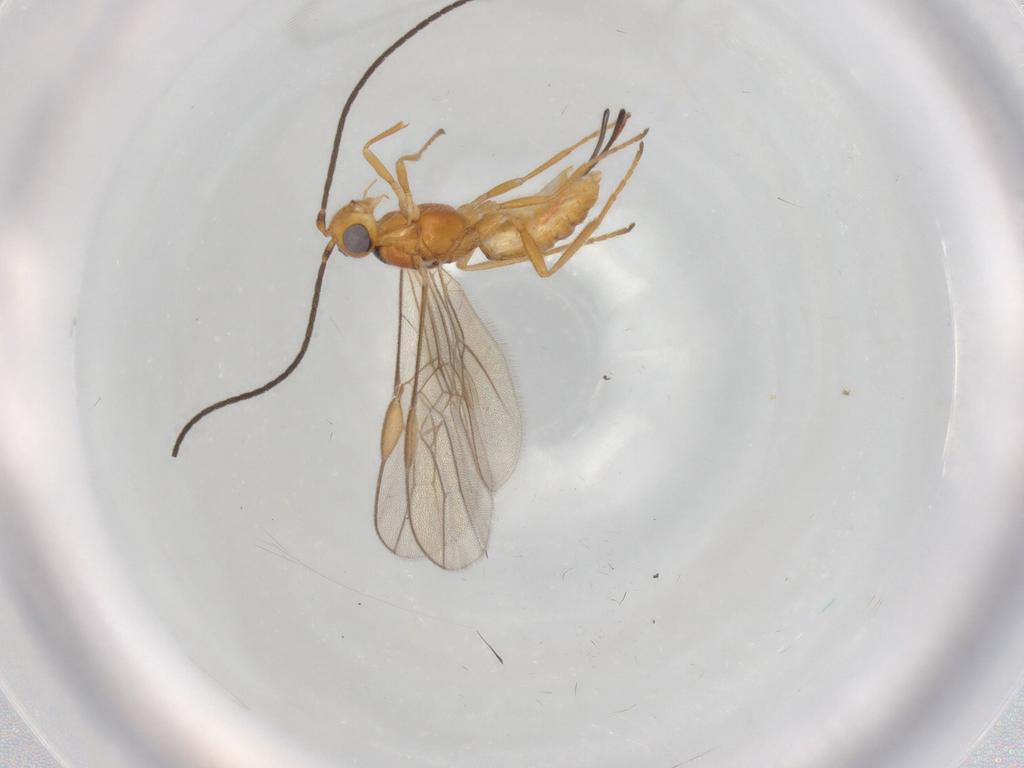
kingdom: Animalia
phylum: Arthropoda
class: Insecta
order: Hymenoptera
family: Braconidae
